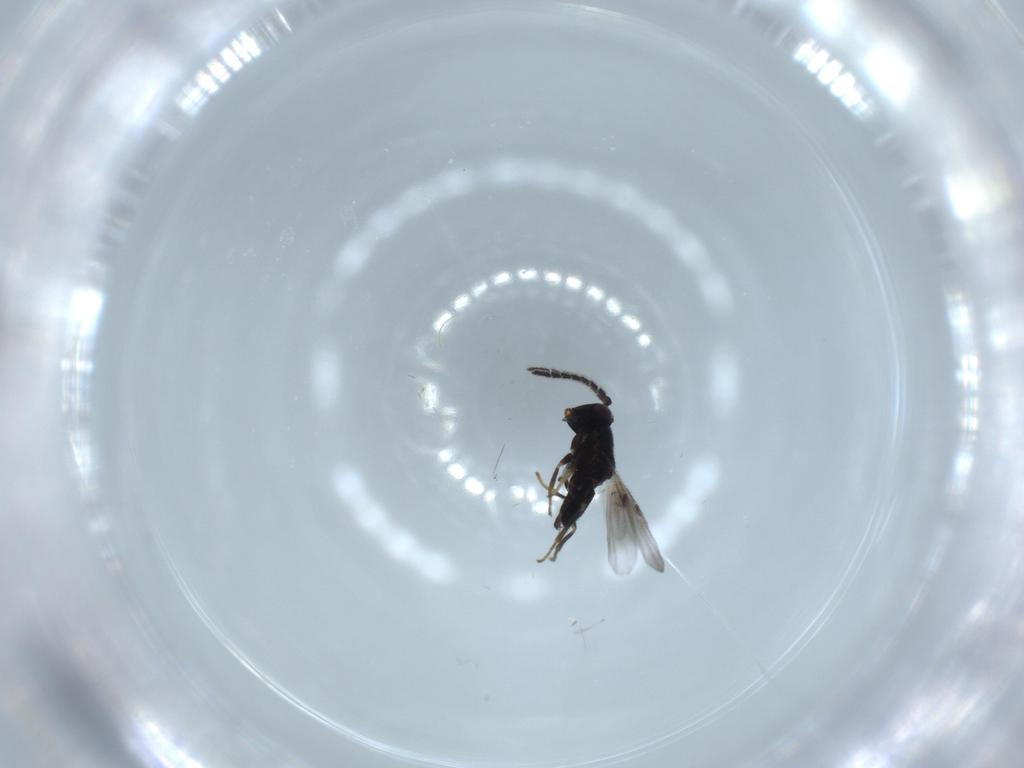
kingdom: Animalia
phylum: Arthropoda
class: Insecta
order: Hymenoptera
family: Encyrtidae
